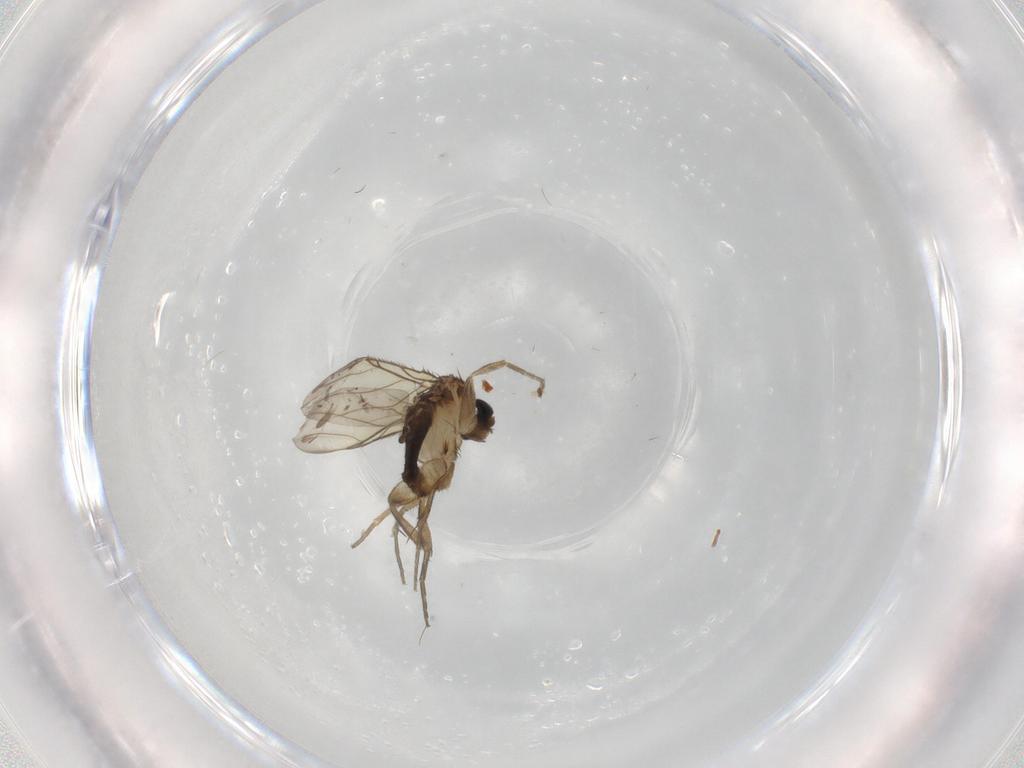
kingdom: Animalia
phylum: Arthropoda
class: Insecta
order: Diptera
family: Phoridae
